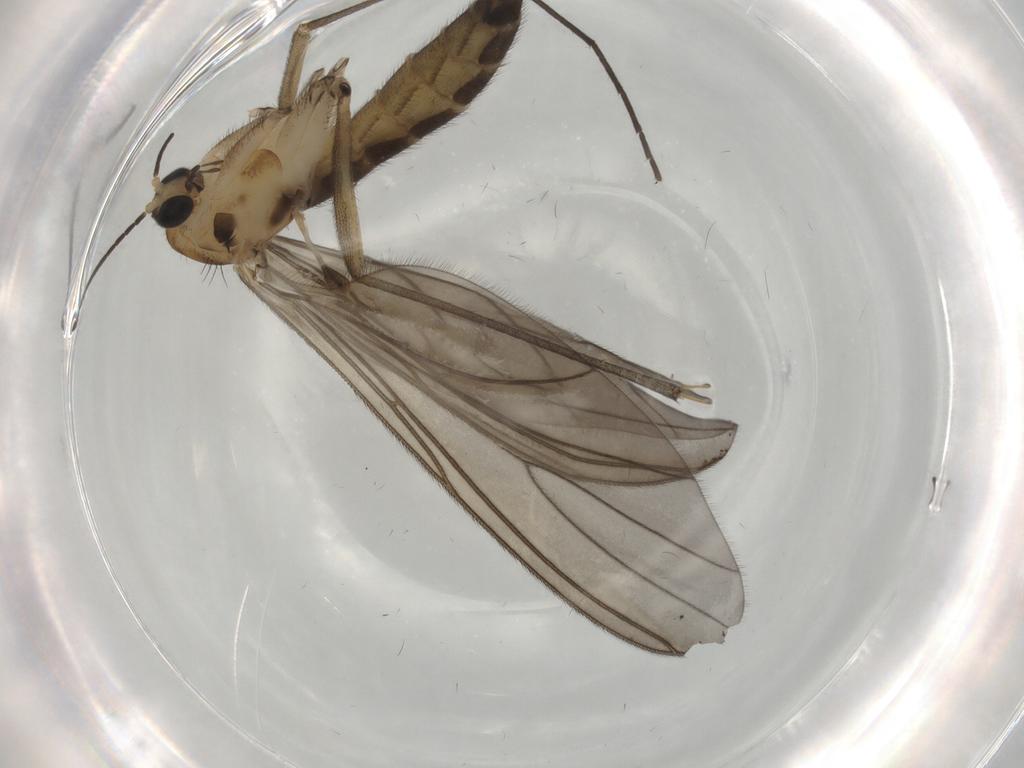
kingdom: Animalia
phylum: Arthropoda
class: Insecta
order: Diptera
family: Sciaridae
